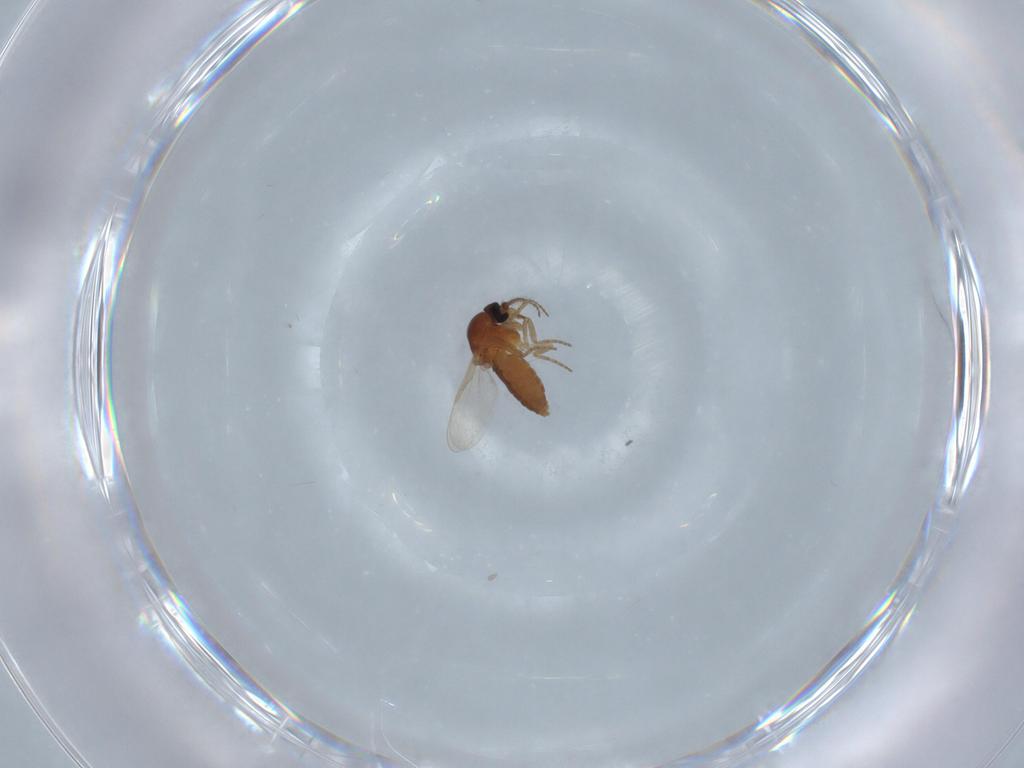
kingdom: Animalia
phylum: Arthropoda
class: Insecta
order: Diptera
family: Ceratopogonidae
